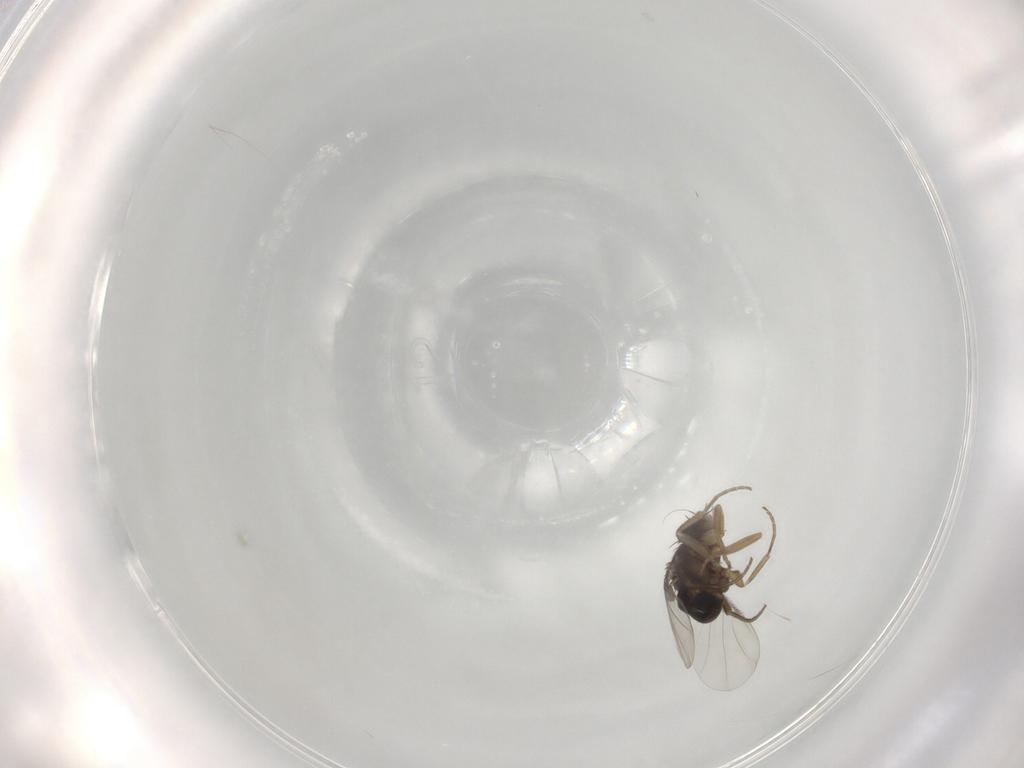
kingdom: Animalia
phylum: Arthropoda
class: Insecta
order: Diptera
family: Phoridae
